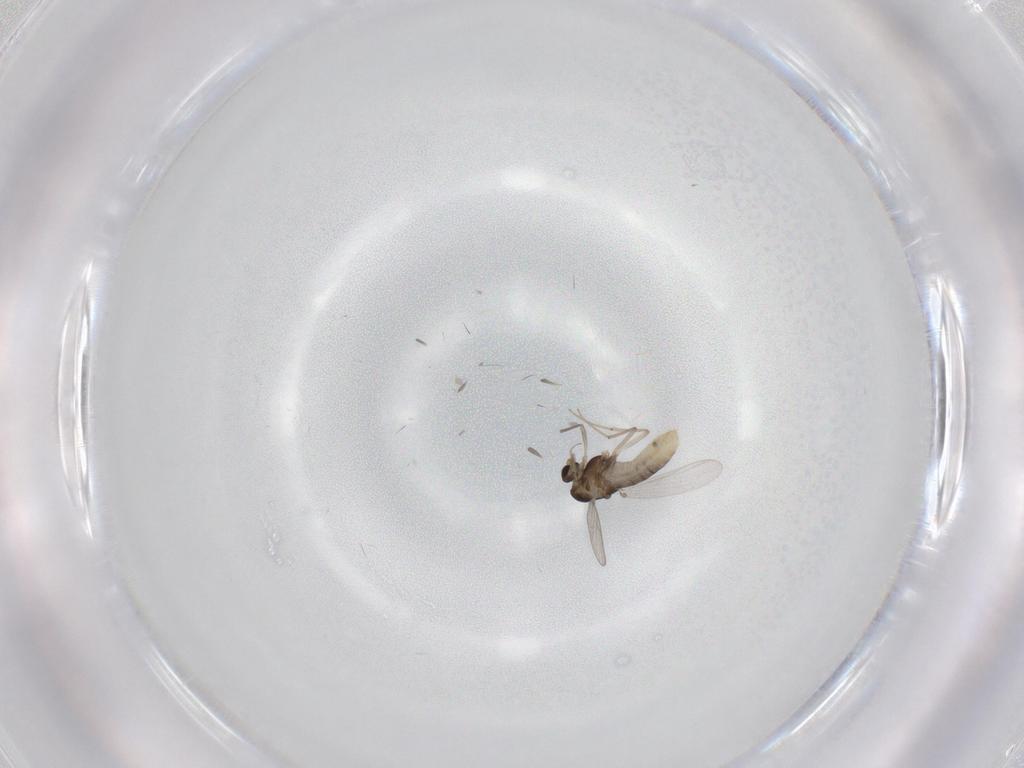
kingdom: Animalia
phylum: Arthropoda
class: Insecta
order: Diptera
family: Chironomidae
